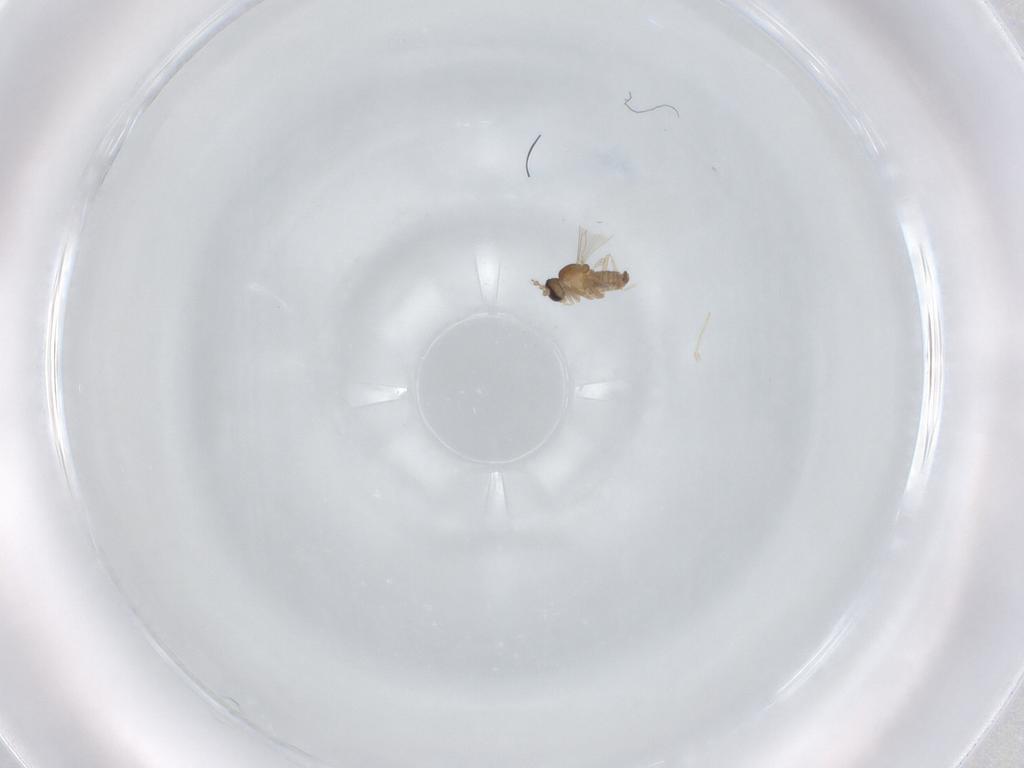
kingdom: Animalia
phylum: Arthropoda
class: Insecta
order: Diptera
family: Cecidomyiidae
